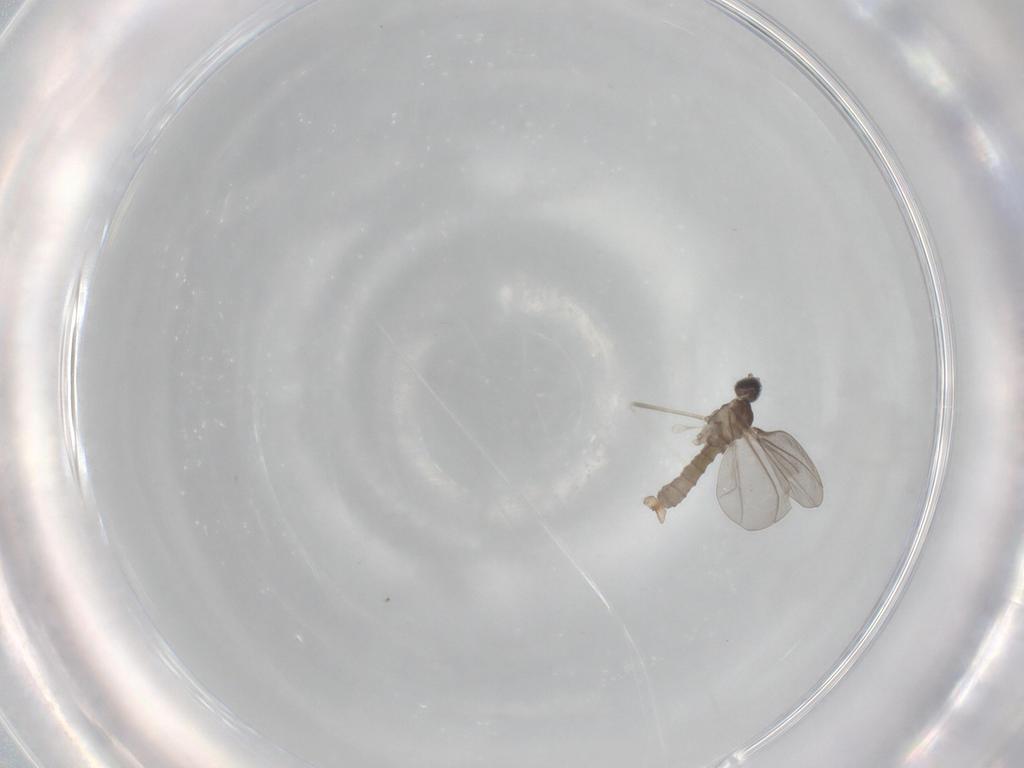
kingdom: Animalia
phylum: Arthropoda
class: Insecta
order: Diptera
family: Cecidomyiidae
